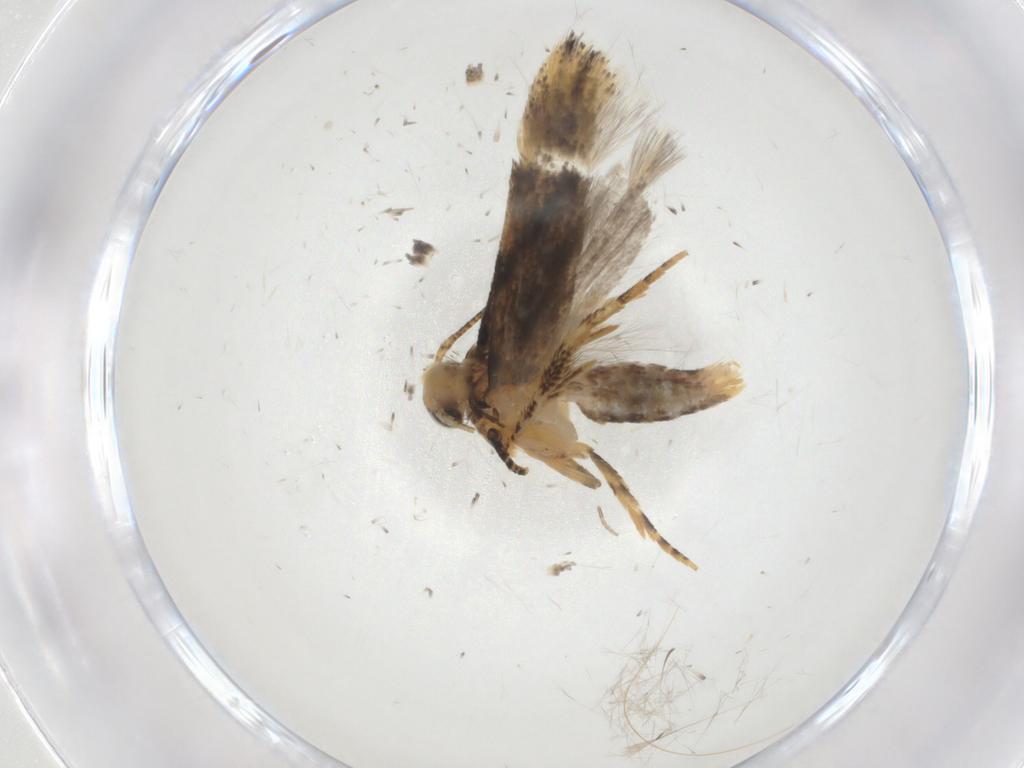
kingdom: Animalia
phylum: Arthropoda
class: Insecta
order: Lepidoptera
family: Gelechiidae
